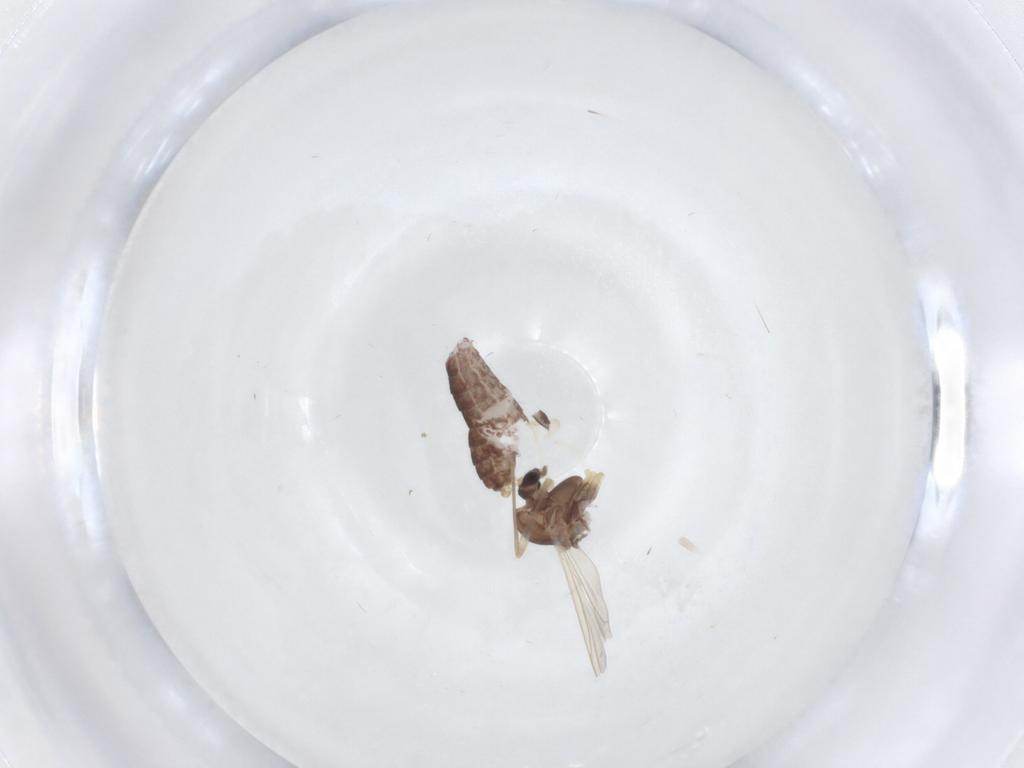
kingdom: Animalia
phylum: Arthropoda
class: Insecta
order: Diptera
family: Chironomidae
